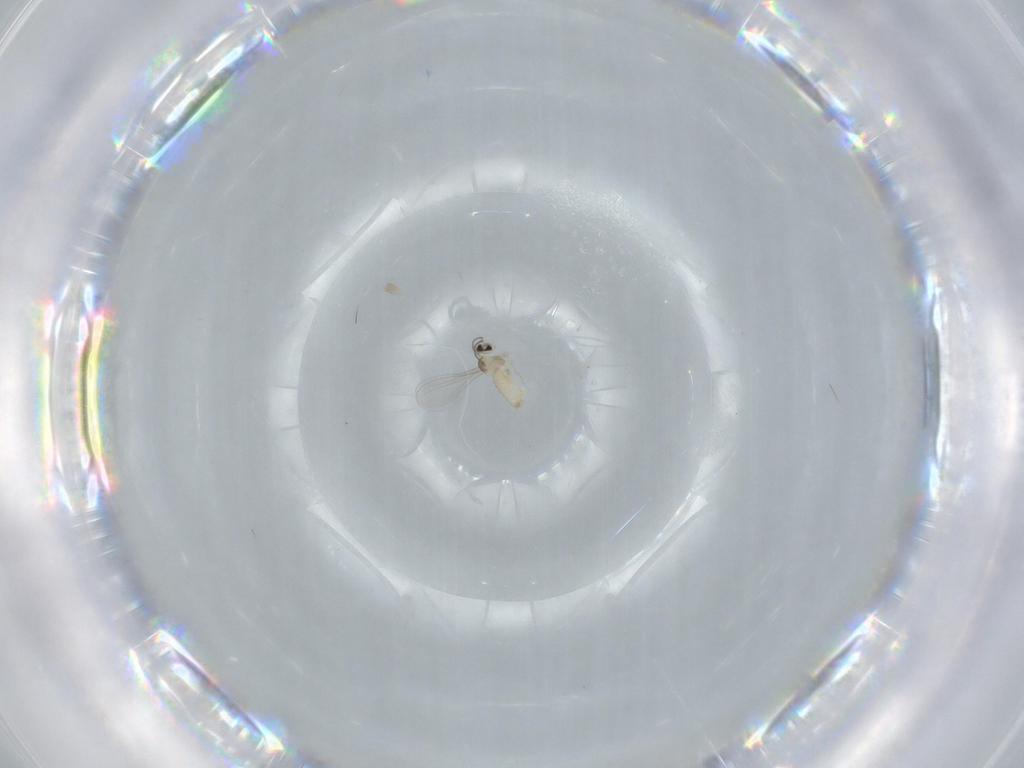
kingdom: Animalia
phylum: Arthropoda
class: Insecta
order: Diptera
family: Cecidomyiidae
